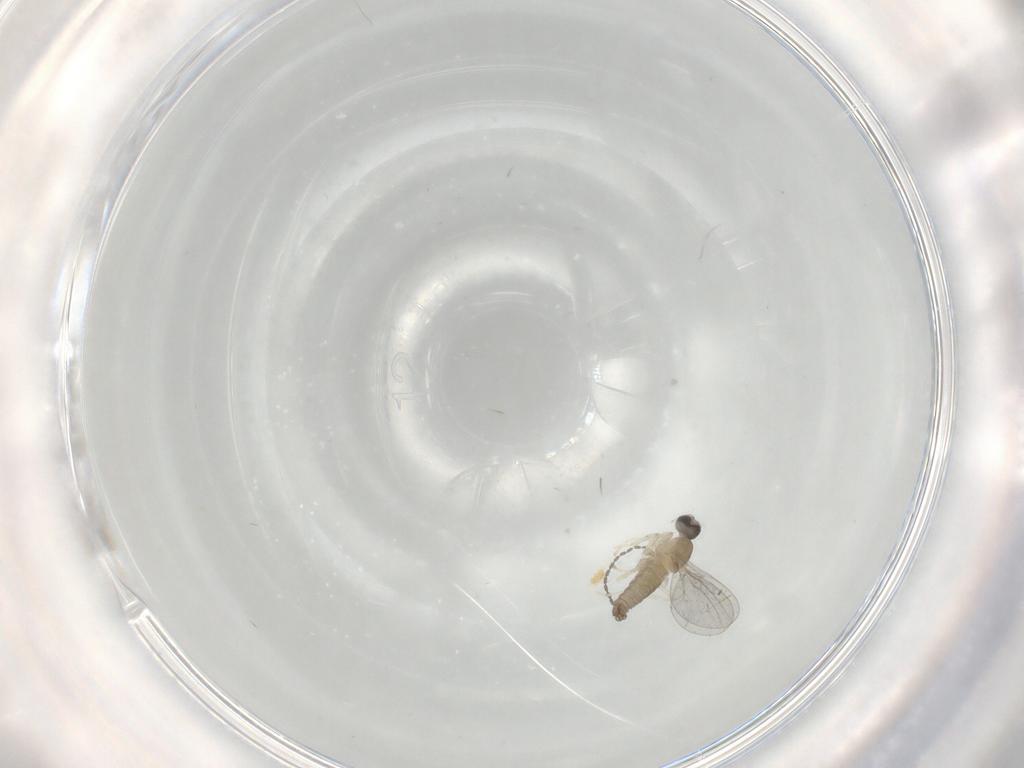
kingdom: Animalia
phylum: Arthropoda
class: Insecta
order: Diptera
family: Cecidomyiidae
